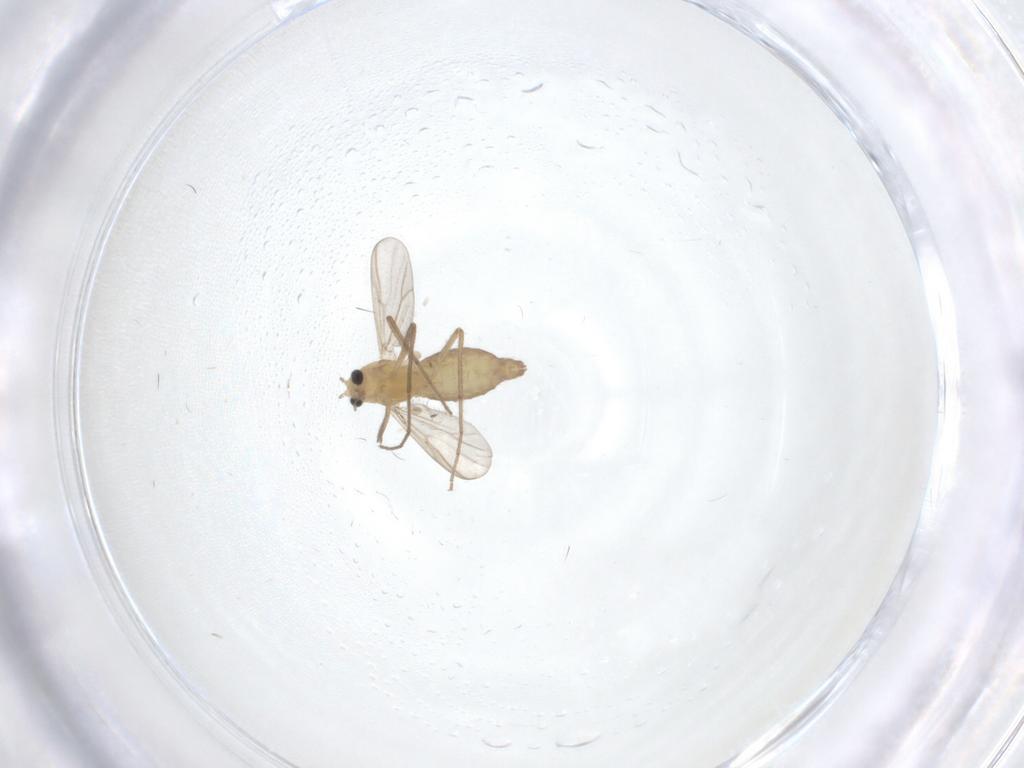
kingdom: Animalia
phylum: Arthropoda
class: Insecta
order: Diptera
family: Chironomidae
